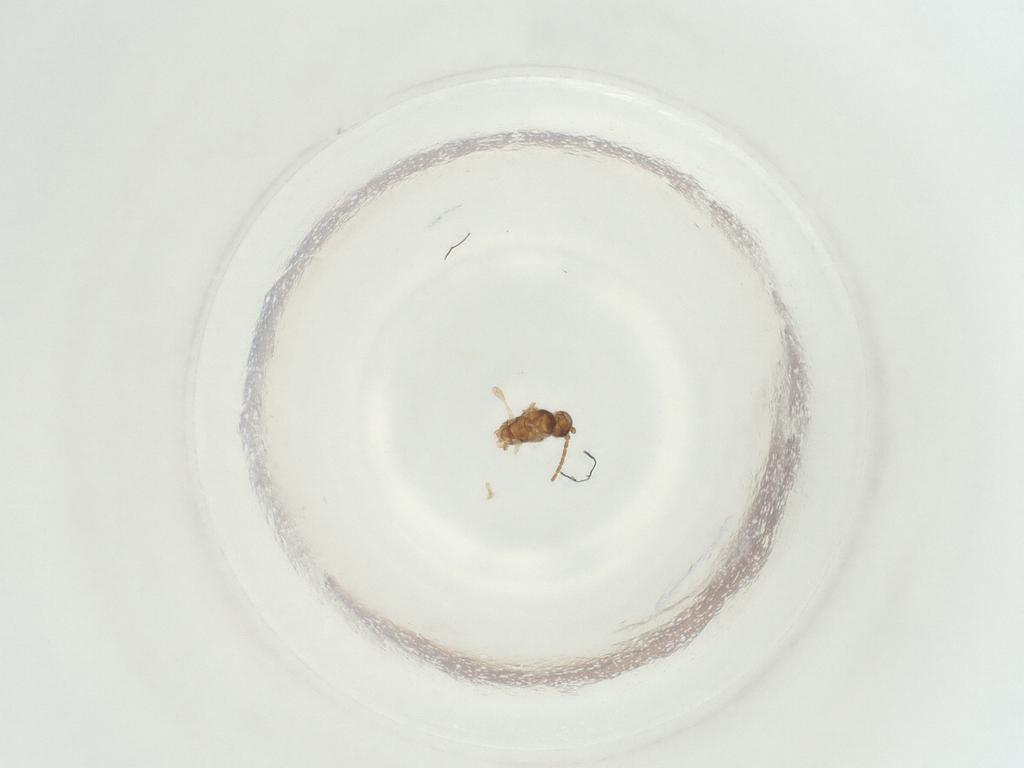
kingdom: Animalia
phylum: Arthropoda
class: Insecta
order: Diptera
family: Sciaridae
